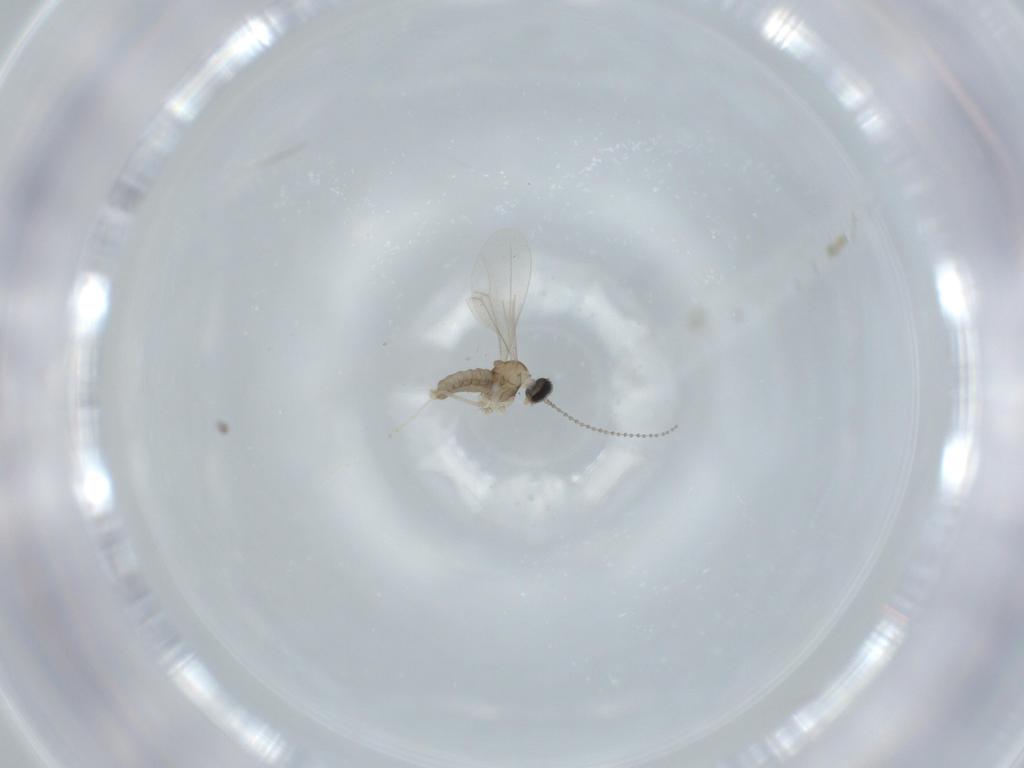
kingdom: Animalia
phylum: Arthropoda
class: Insecta
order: Diptera
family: Cecidomyiidae
